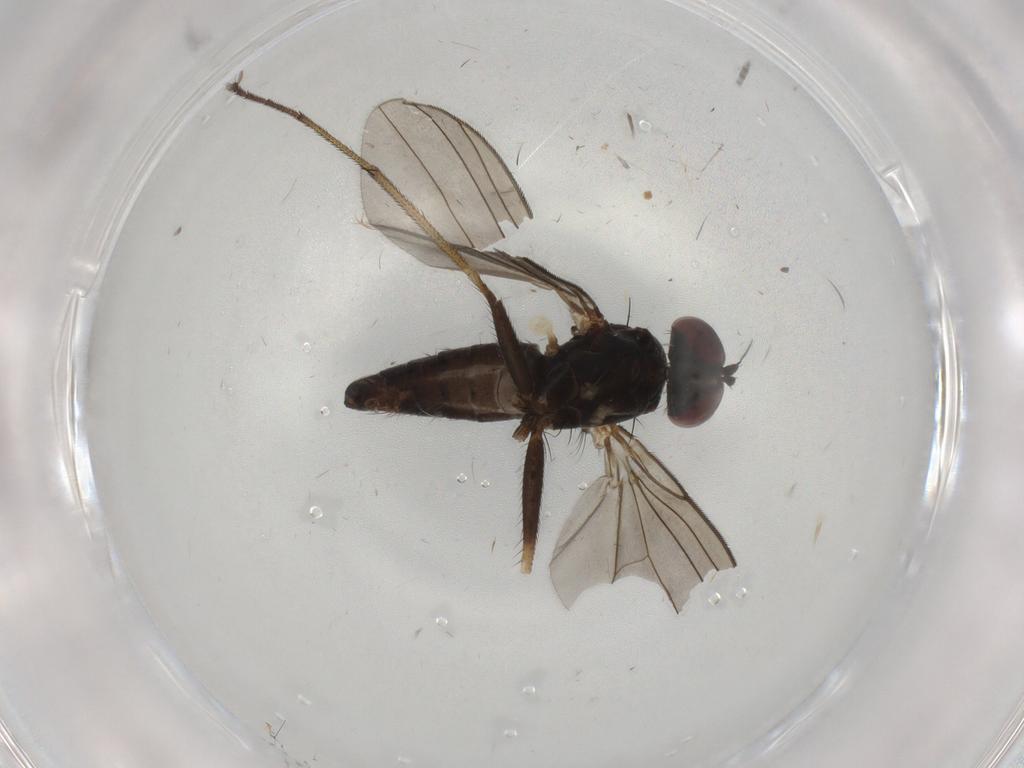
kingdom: Animalia
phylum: Arthropoda
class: Insecta
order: Diptera
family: Dolichopodidae
